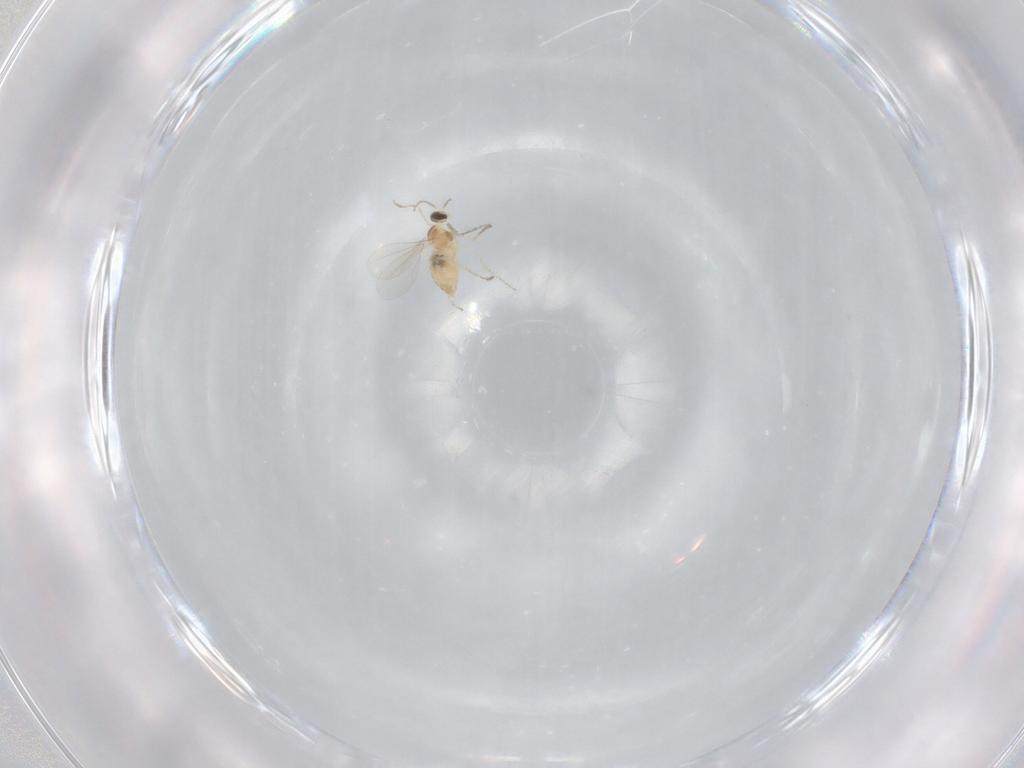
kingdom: Animalia
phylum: Arthropoda
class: Insecta
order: Diptera
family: Cecidomyiidae
